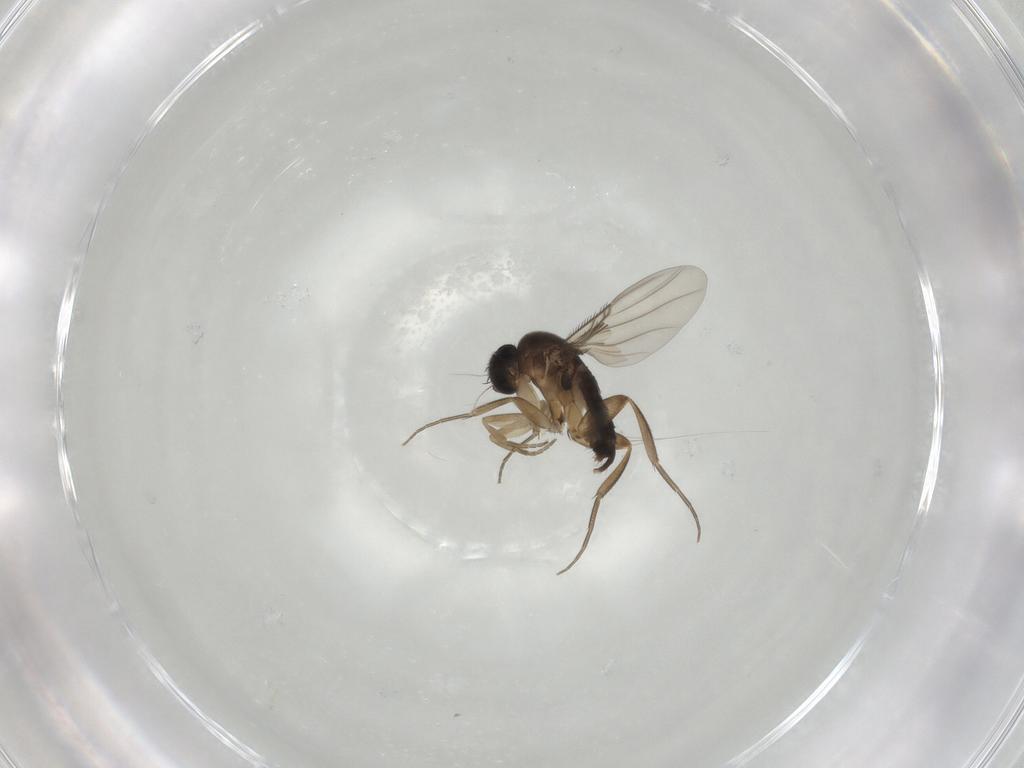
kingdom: Animalia
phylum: Arthropoda
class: Insecta
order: Diptera
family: Phoridae
